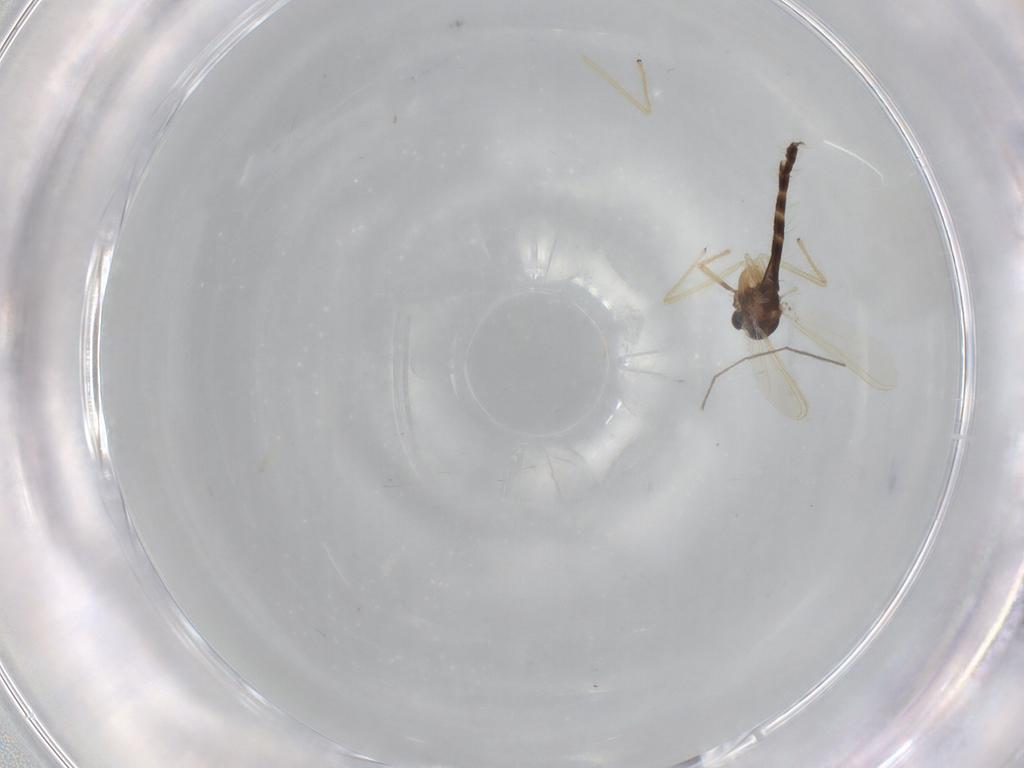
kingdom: Animalia
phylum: Arthropoda
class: Insecta
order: Diptera
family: Chironomidae
